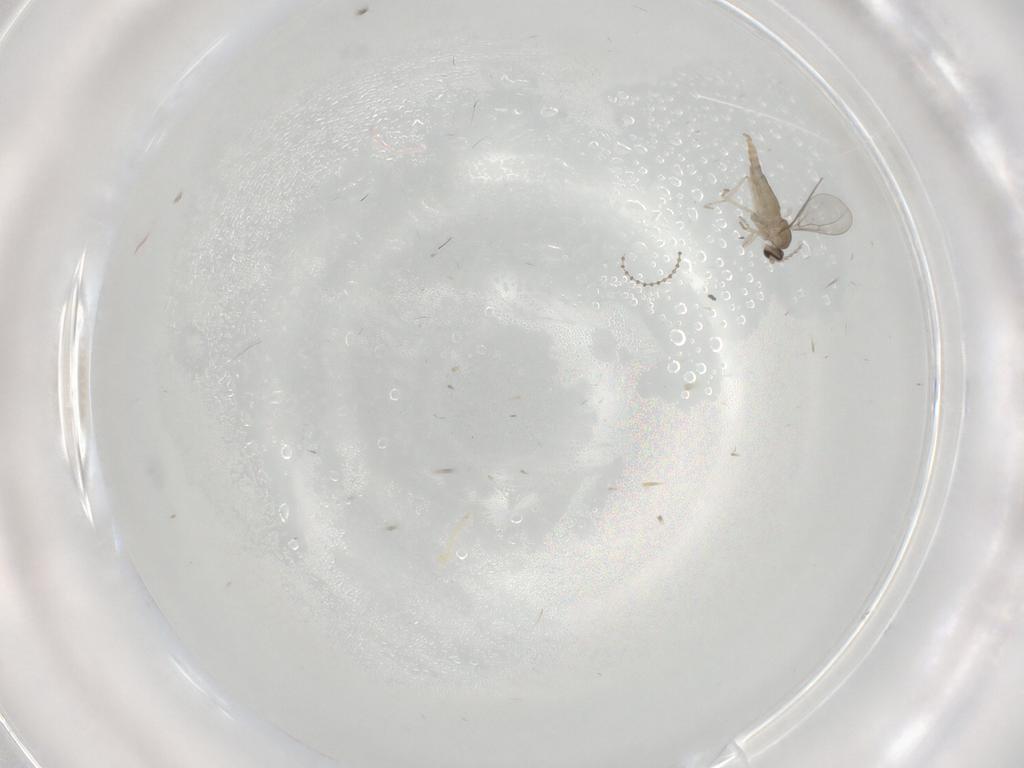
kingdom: Animalia
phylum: Arthropoda
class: Insecta
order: Diptera
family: Cecidomyiidae
